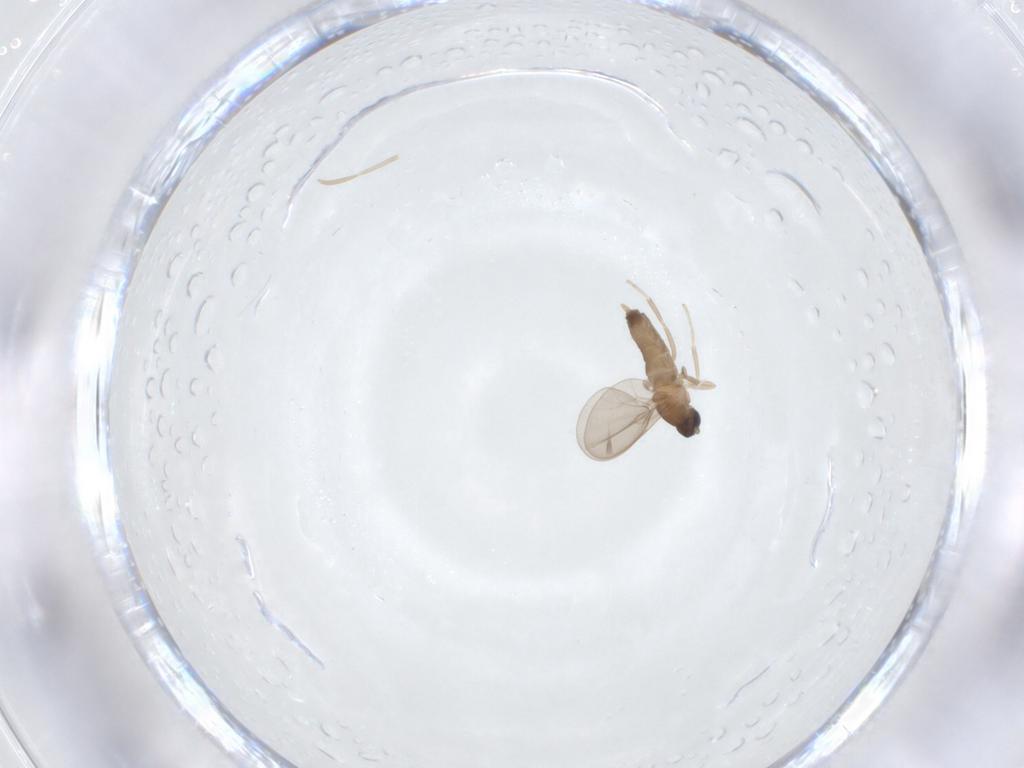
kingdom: Animalia
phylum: Arthropoda
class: Insecta
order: Diptera
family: Cecidomyiidae
